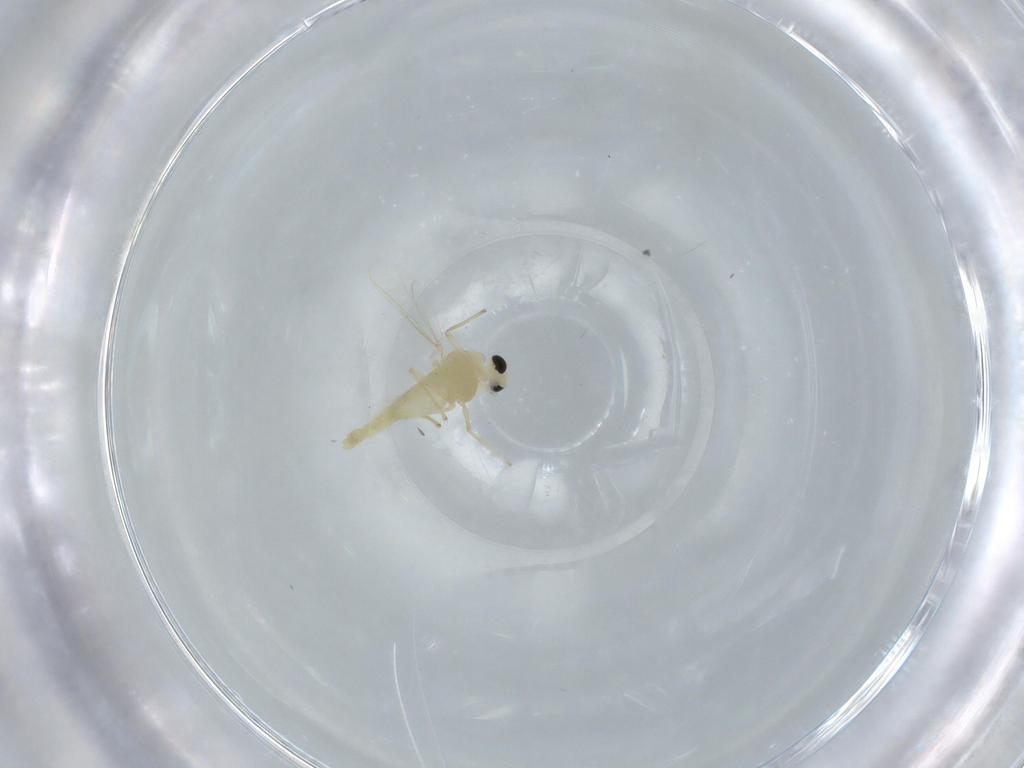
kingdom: Animalia
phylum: Arthropoda
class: Insecta
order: Diptera
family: Chironomidae
